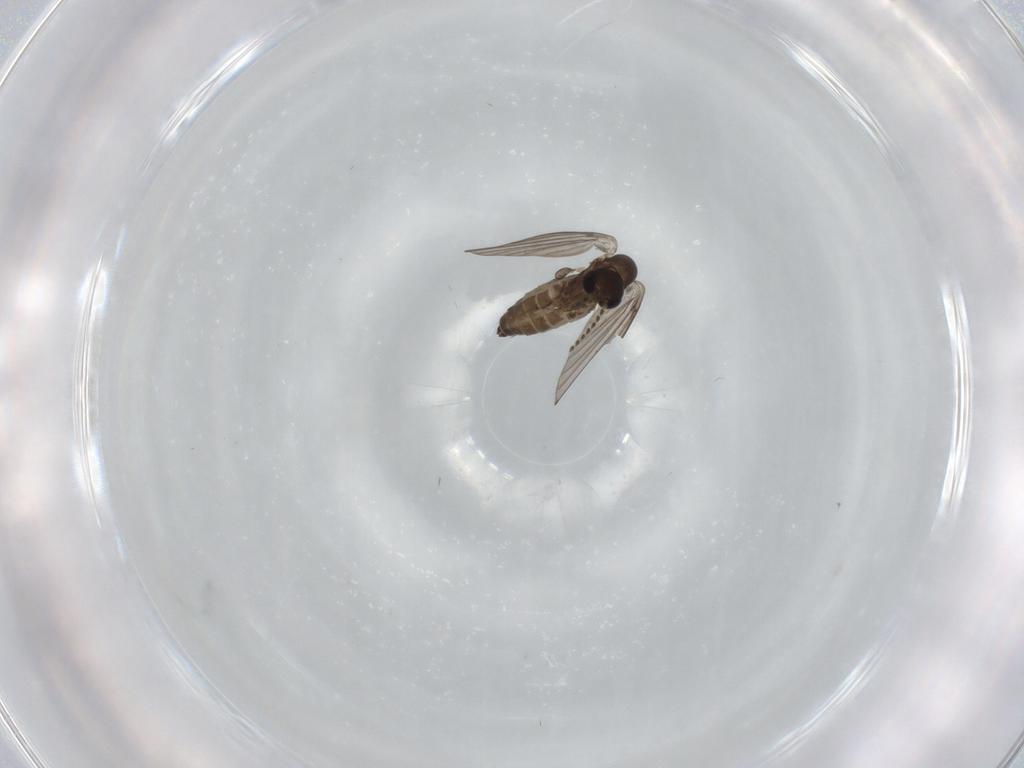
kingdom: Animalia
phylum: Arthropoda
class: Insecta
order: Diptera
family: Therevidae
